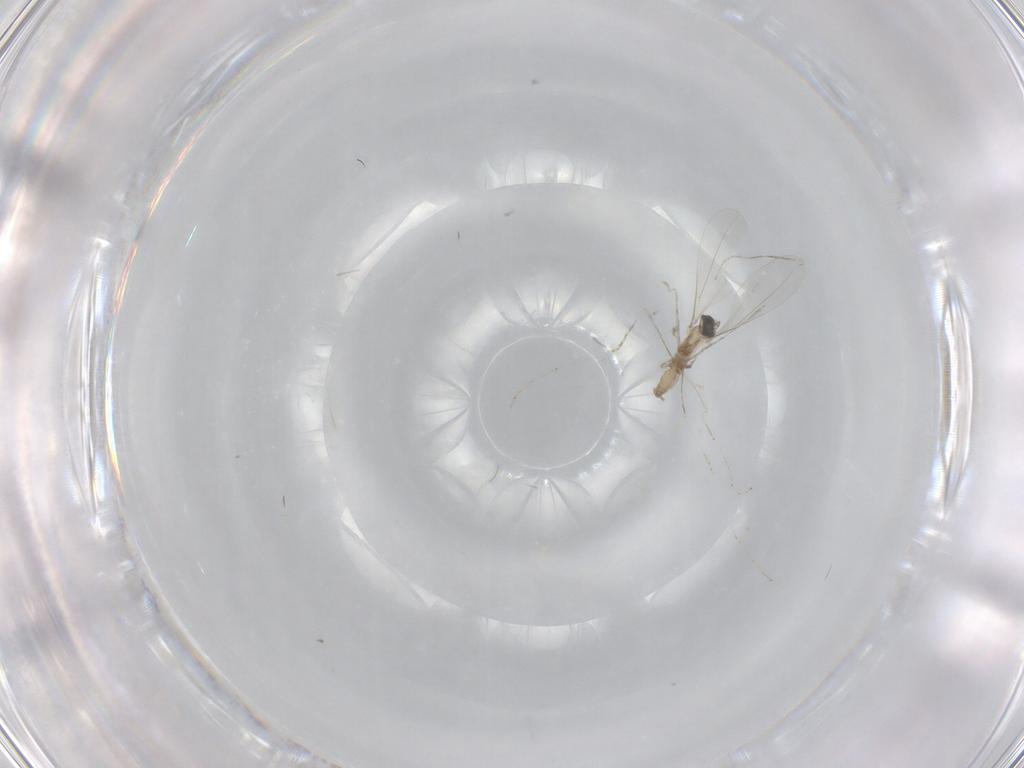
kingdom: Animalia
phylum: Arthropoda
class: Insecta
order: Diptera
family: Cecidomyiidae
